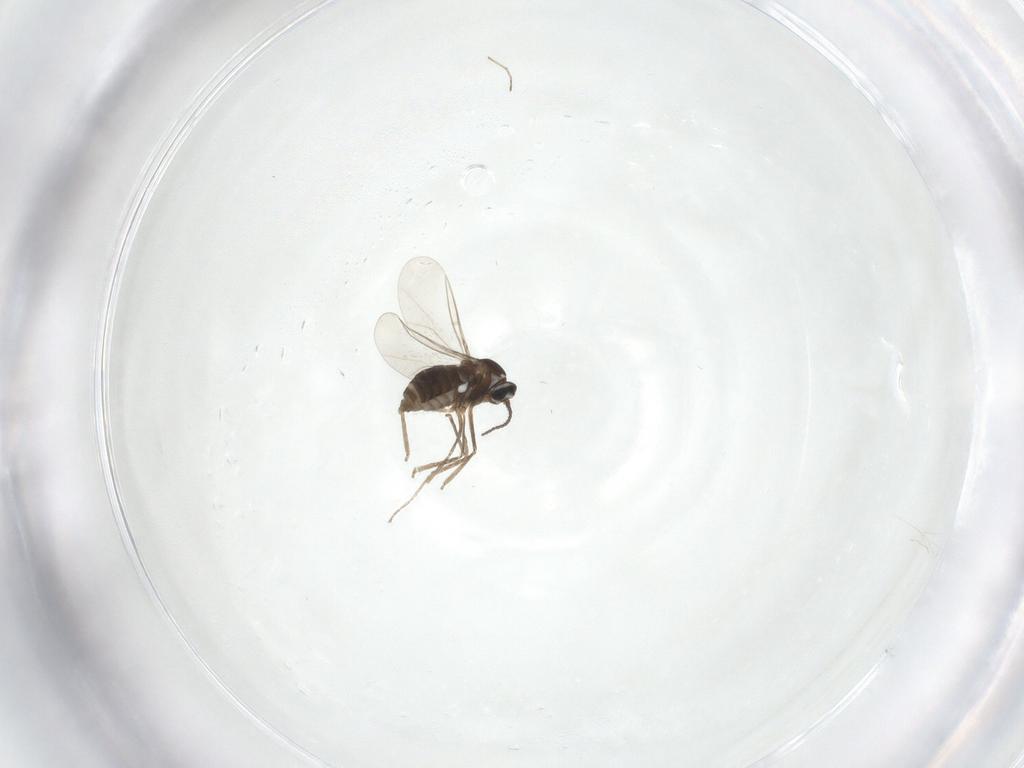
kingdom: Animalia
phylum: Arthropoda
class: Insecta
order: Diptera
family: Cecidomyiidae
